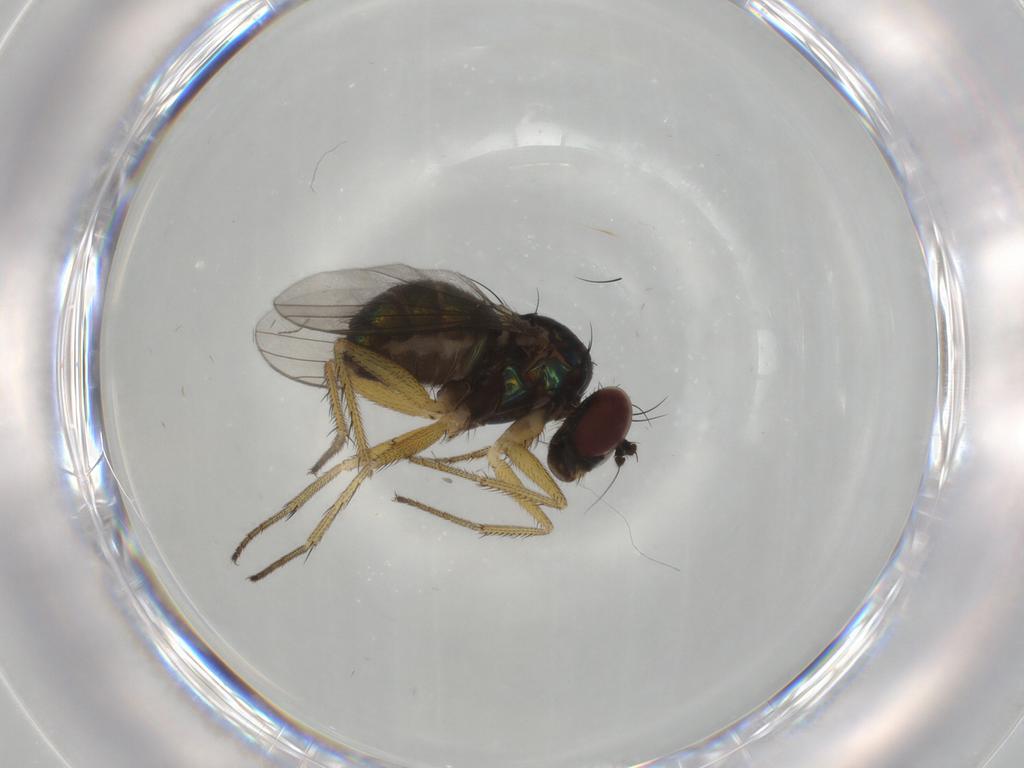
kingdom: Animalia
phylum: Arthropoda
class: Insecta
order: Diptera
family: Dolichopodidae
